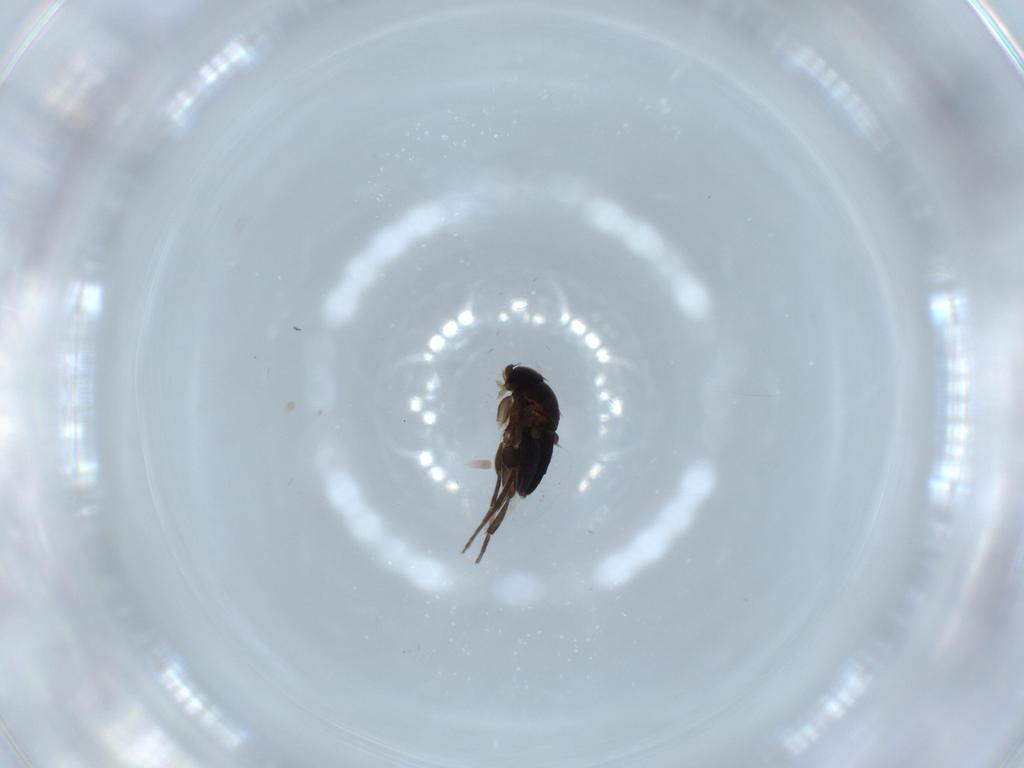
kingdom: Animalia
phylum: Arthropoda
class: Insecta
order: Diptera
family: Phoridae
